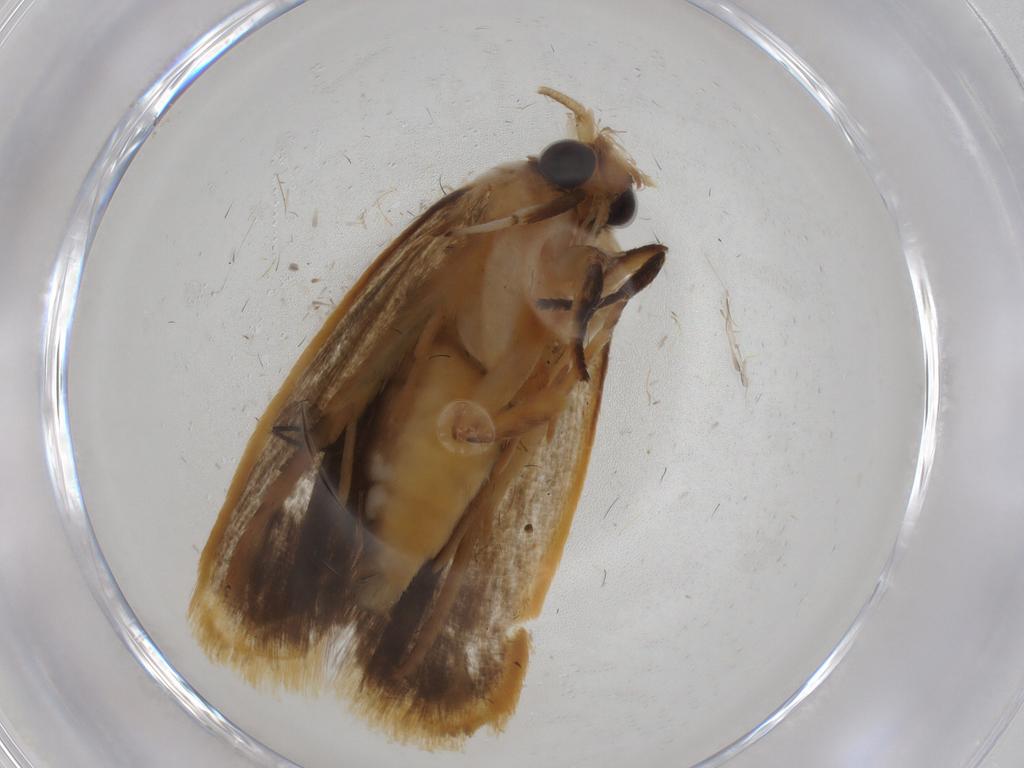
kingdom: Animalia
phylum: Arthropoda
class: Insecta
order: Lepidoptera
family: Erebidae
